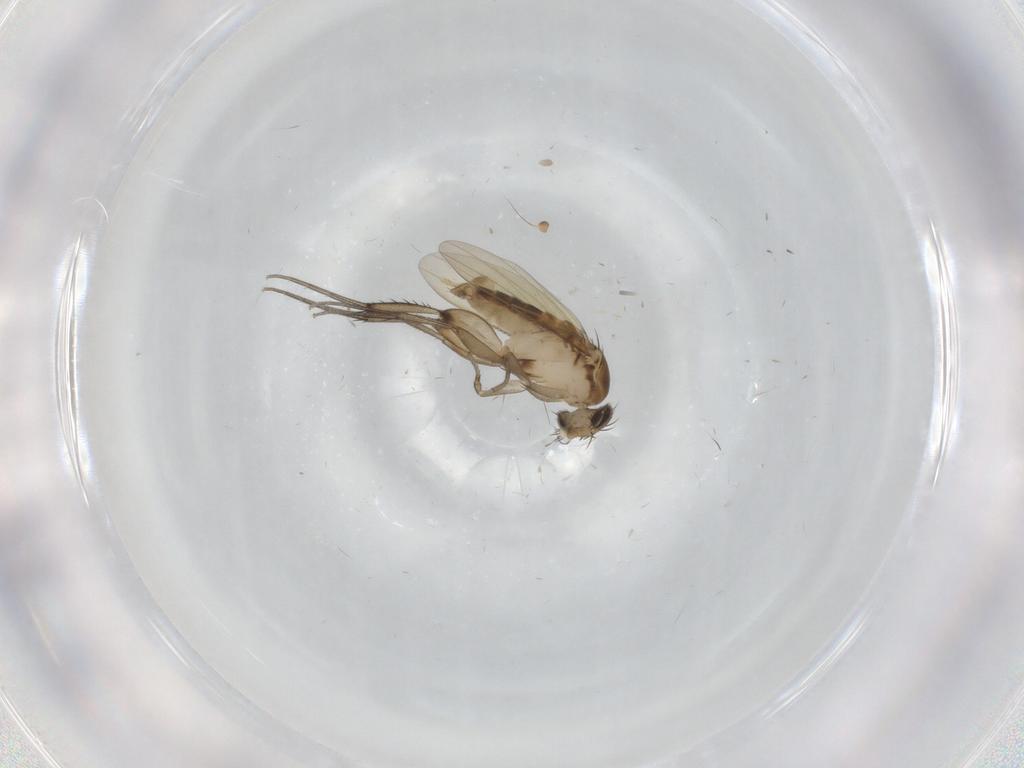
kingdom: Animalia
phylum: Arthropoda
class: Insecta
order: Diptera
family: Phoridae
